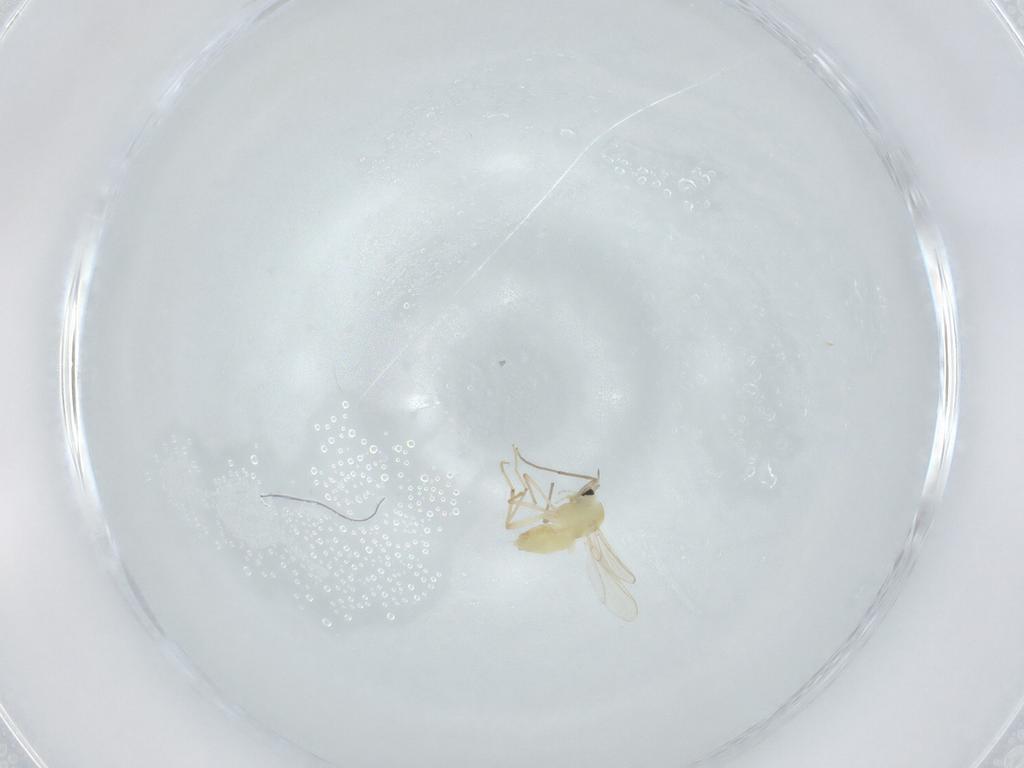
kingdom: Animalia
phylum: Arthropoda
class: Insecta
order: Diptera
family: Chironomidae
